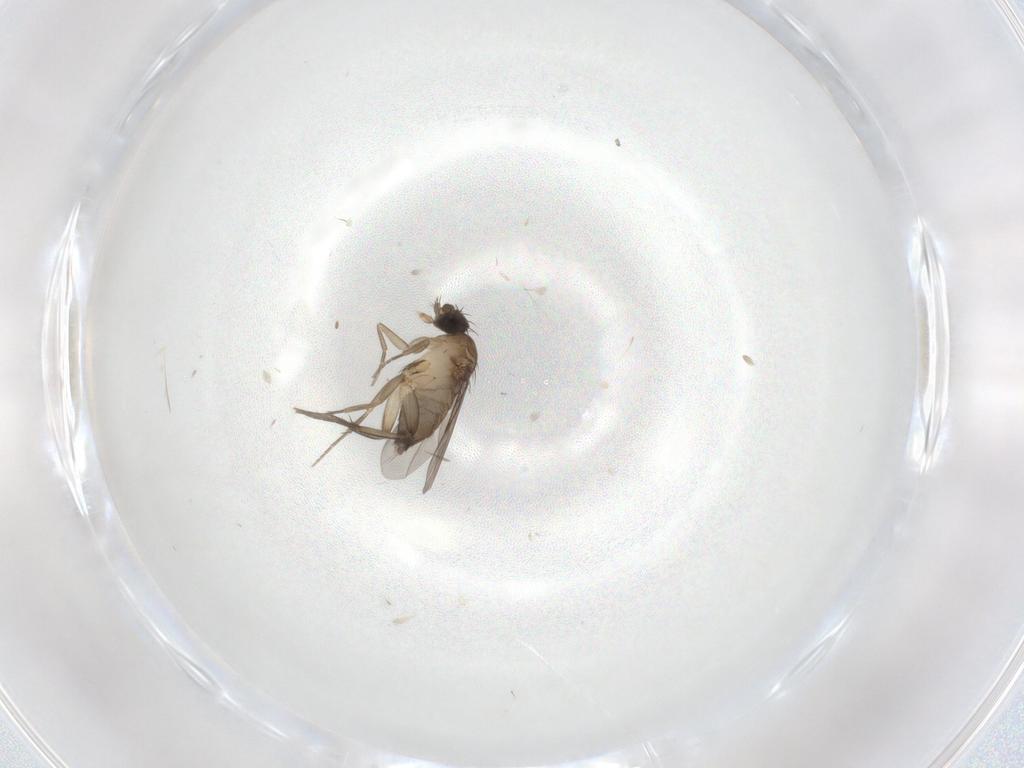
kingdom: Animalia
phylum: Arthropoda
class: Insecta
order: Diptera
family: Phoridae
